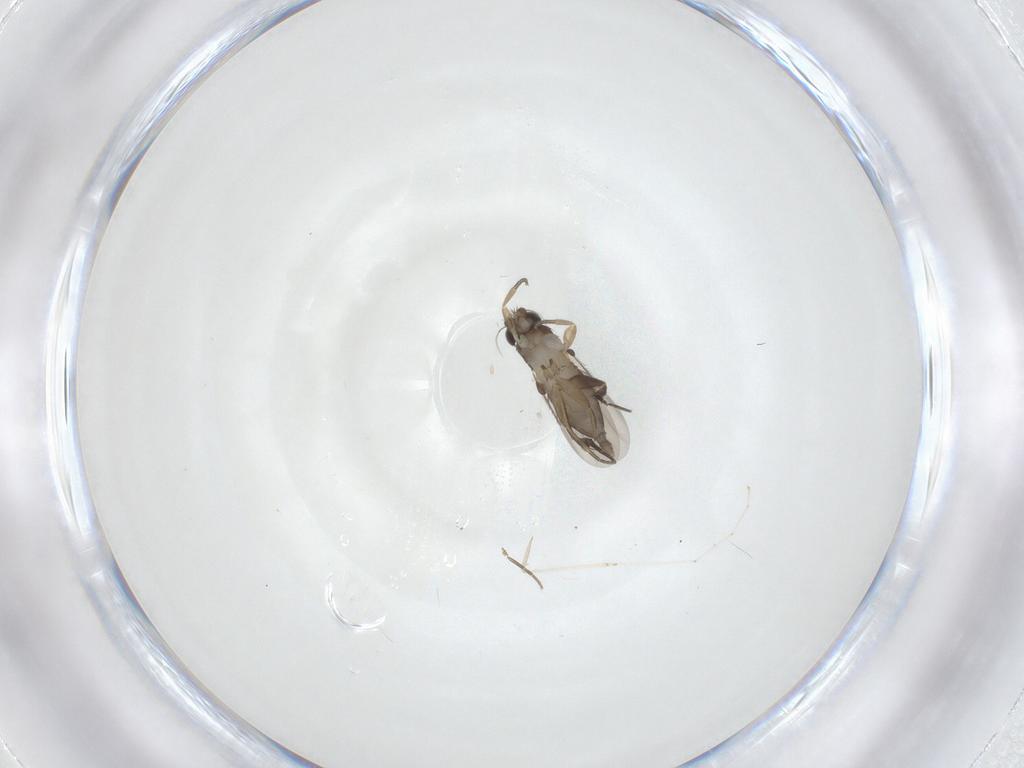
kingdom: Animalia
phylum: Arthropoda
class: Insecta
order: Diptera
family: Phoridae
